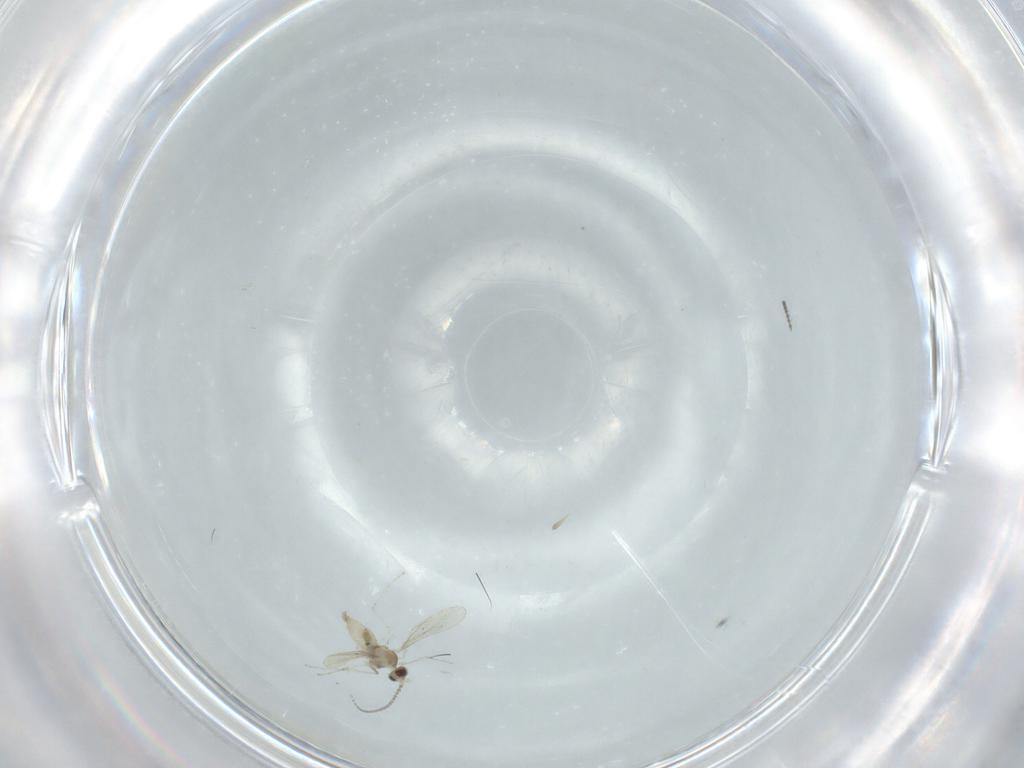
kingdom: Animalia
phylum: Arthropoda
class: Insecta
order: Diptera
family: Cecidomyiidae
